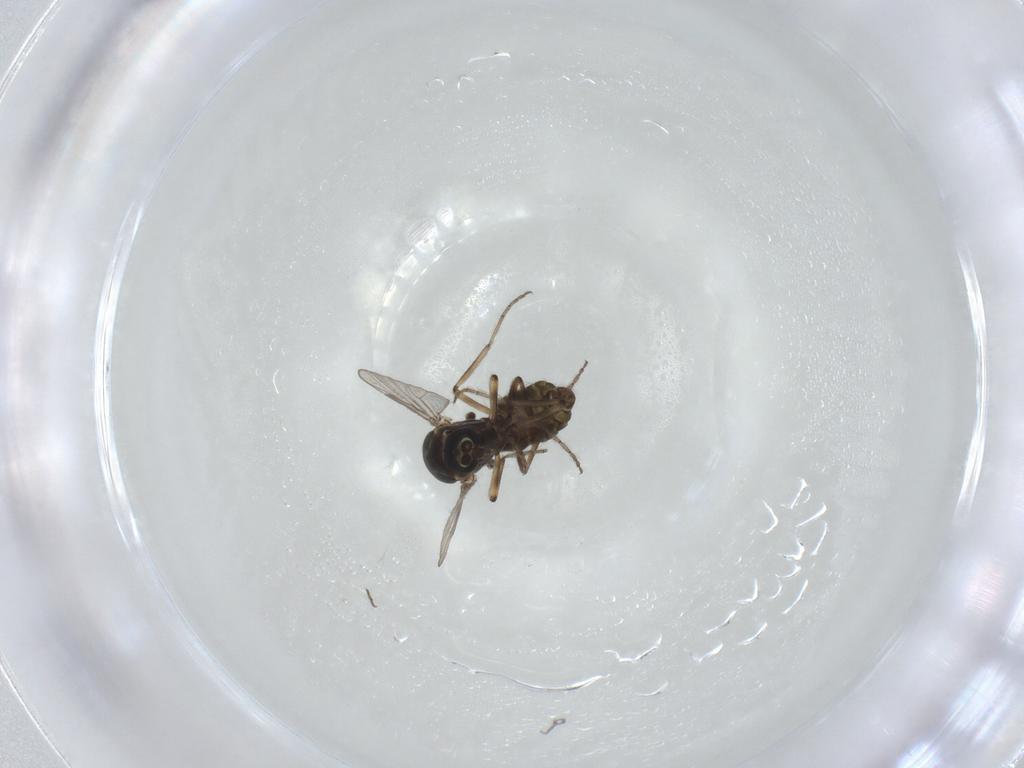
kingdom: Animalia
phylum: Arthropoda
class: Insecta
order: Diptera
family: Ceratopogonidae
